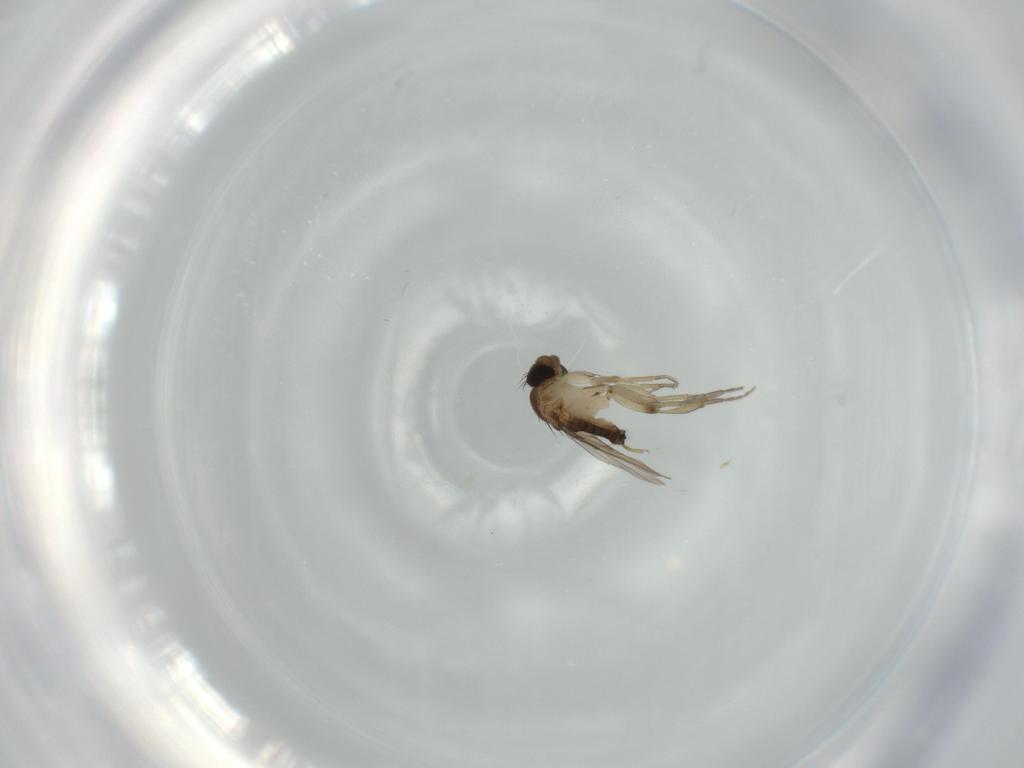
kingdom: Animalia
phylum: Arthropoda
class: Insecta
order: Diptera
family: Phoridae
